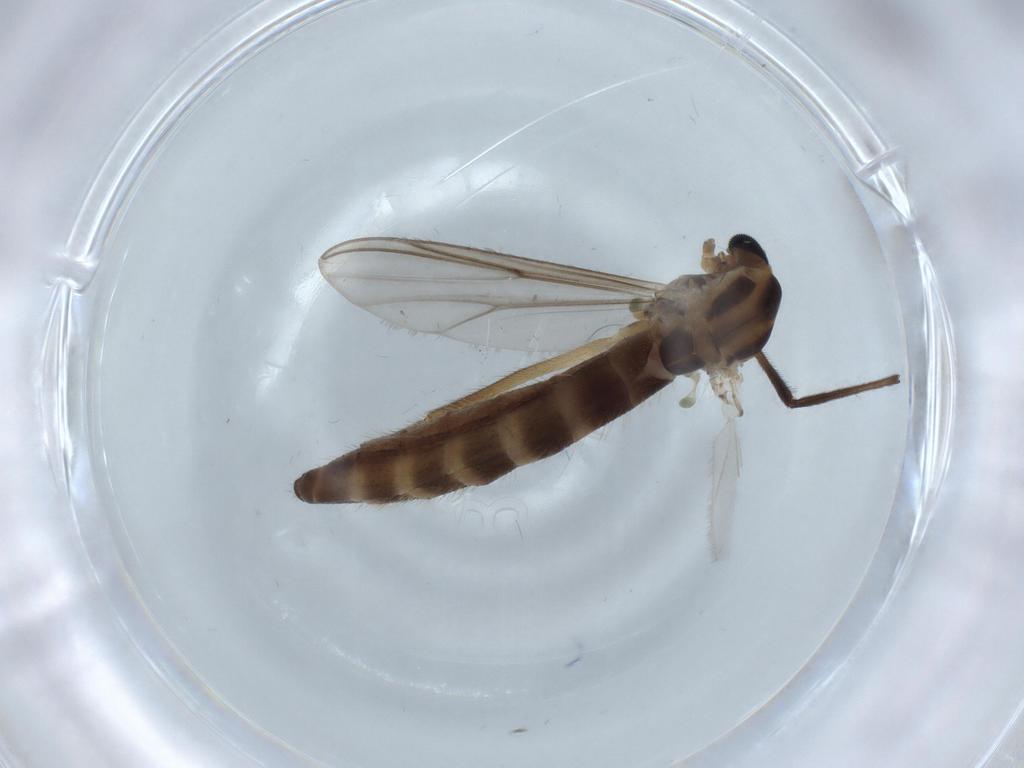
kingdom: Animalia
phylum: Arthropoda
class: Insecta
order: Diptera
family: Chironomidae
